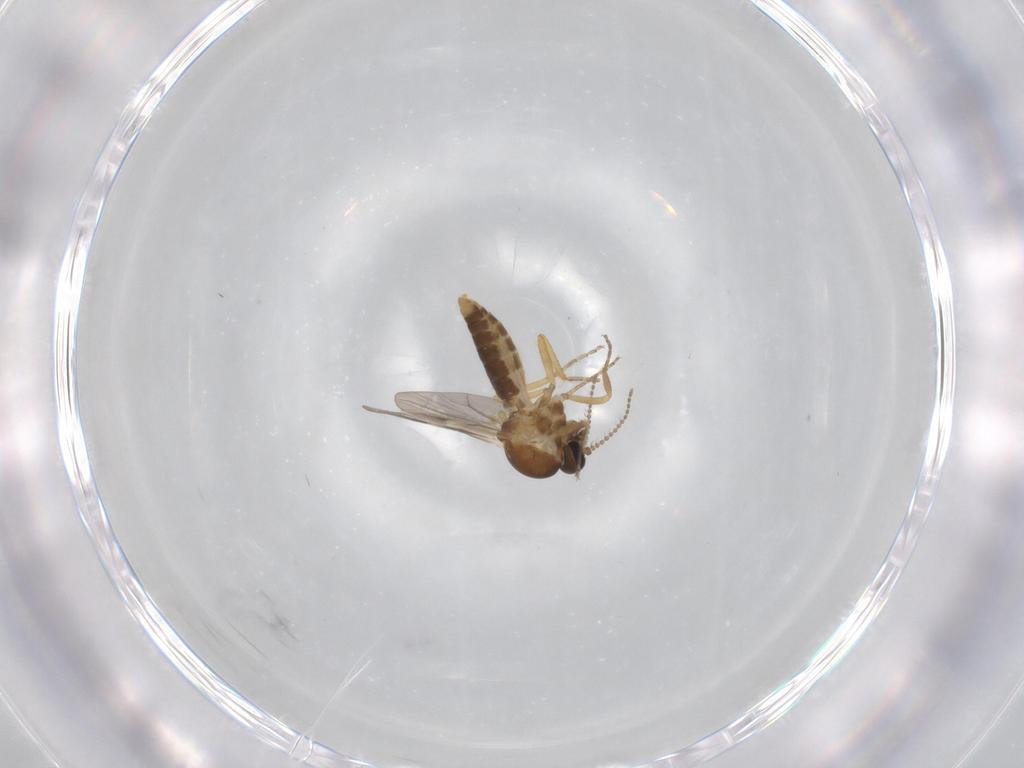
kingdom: Animalia
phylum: Arthropoda
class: Insecta
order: Diptera
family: Ceratopogonidae
